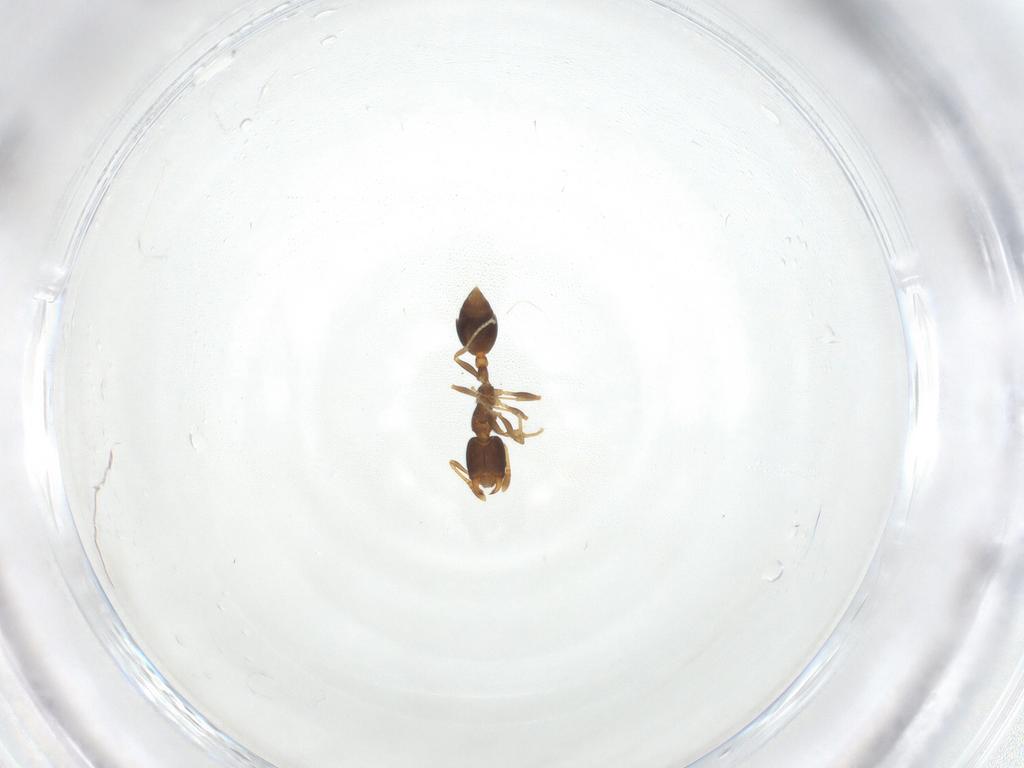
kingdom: Animalia
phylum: Arthropoda
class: Insecta
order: Hymenoptera
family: Formicidae
